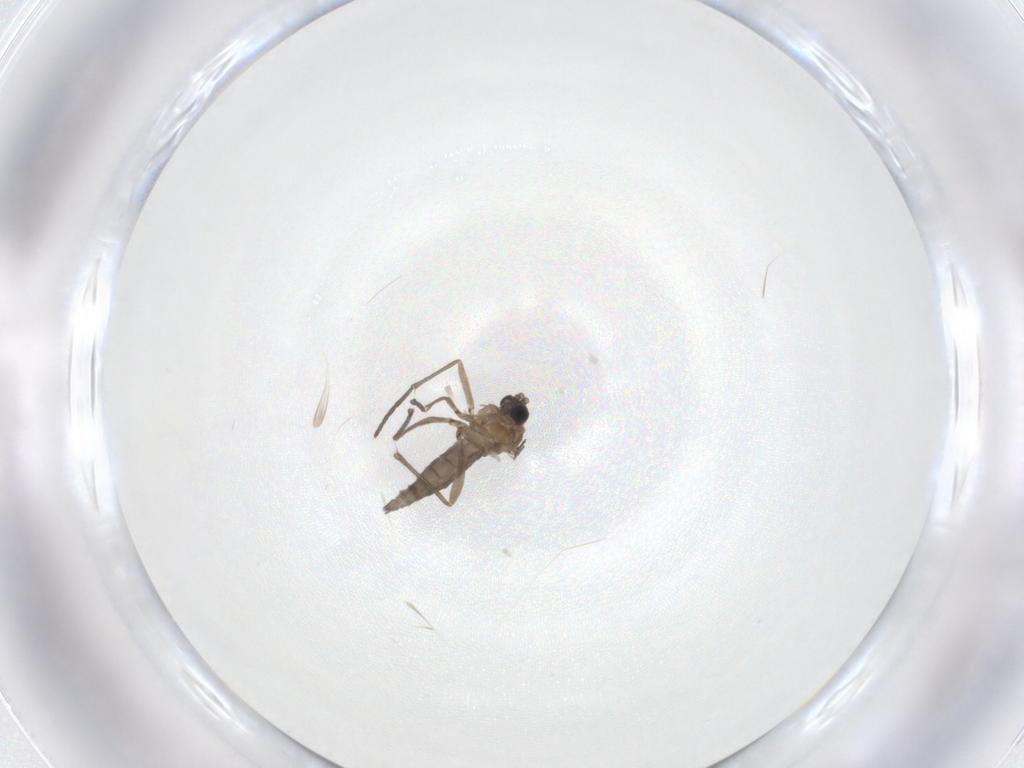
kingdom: Animalia
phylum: Arthropoda
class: Insecta
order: Diptera
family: Sciaridae
